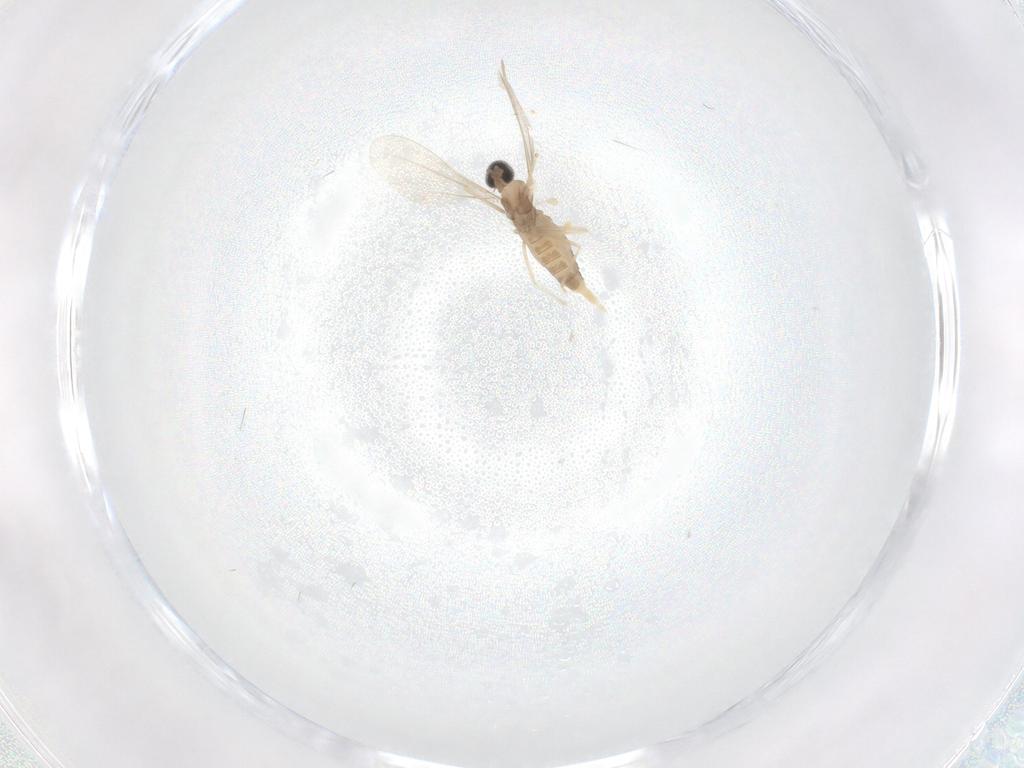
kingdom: Animalia
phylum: Arthropoda
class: Insecta
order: Diptera
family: Cecidomyiidae
